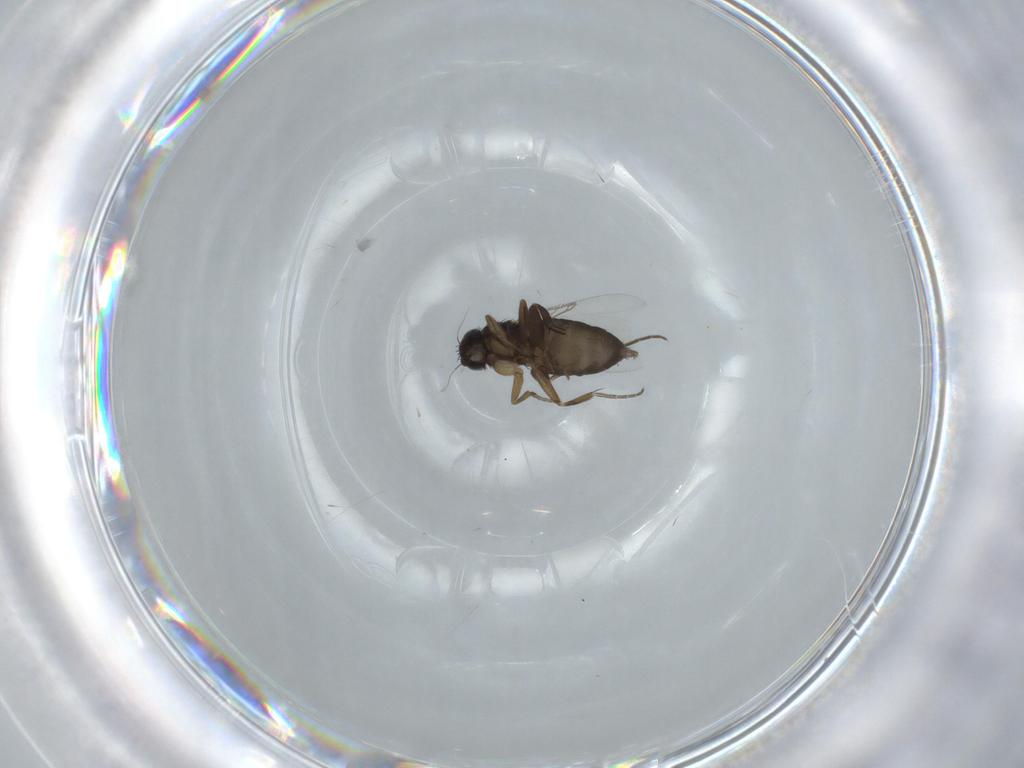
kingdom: Animalia
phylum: Arthropoda
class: Insecta
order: Diptera
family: Phoridae
